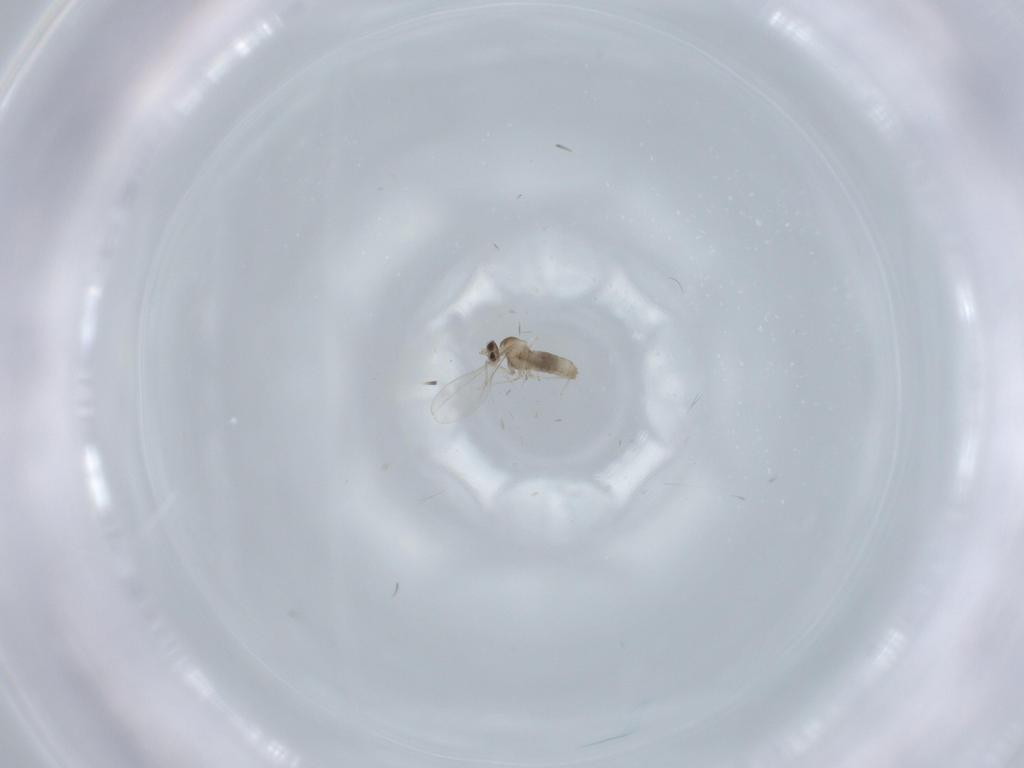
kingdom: Animalia
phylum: Arthropoda
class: Insecta
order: Diptera
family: Cecidomyiidae
